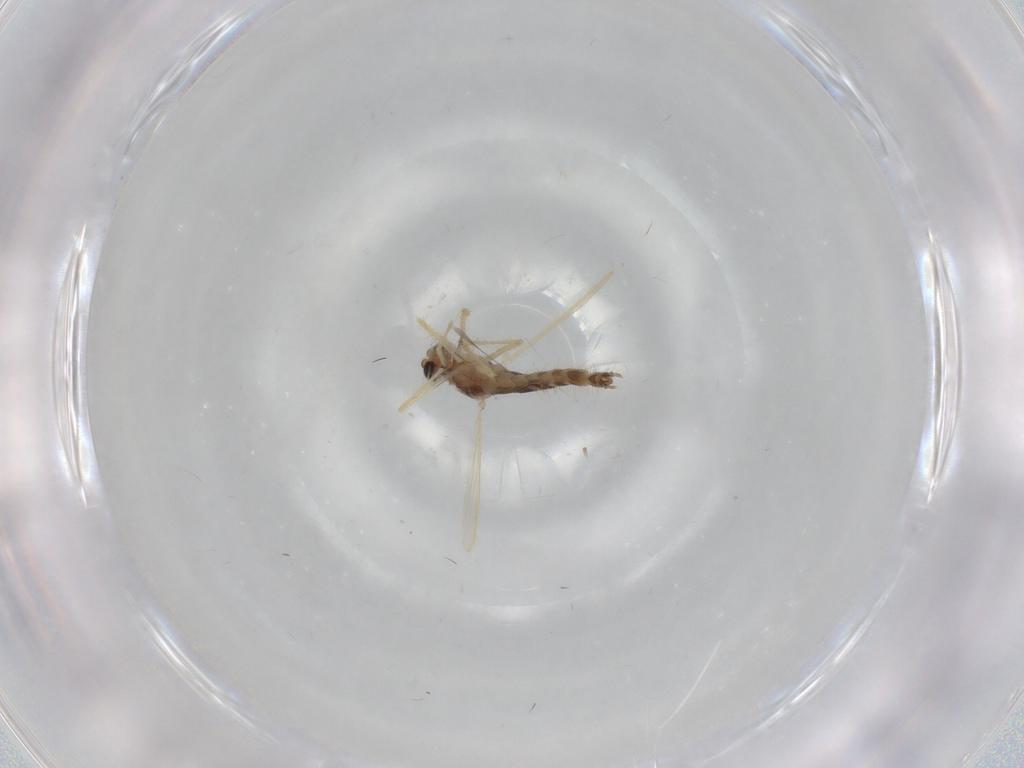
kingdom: Animalia
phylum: Arthropoda
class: Insecta
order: Diptera
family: Chironomidae
